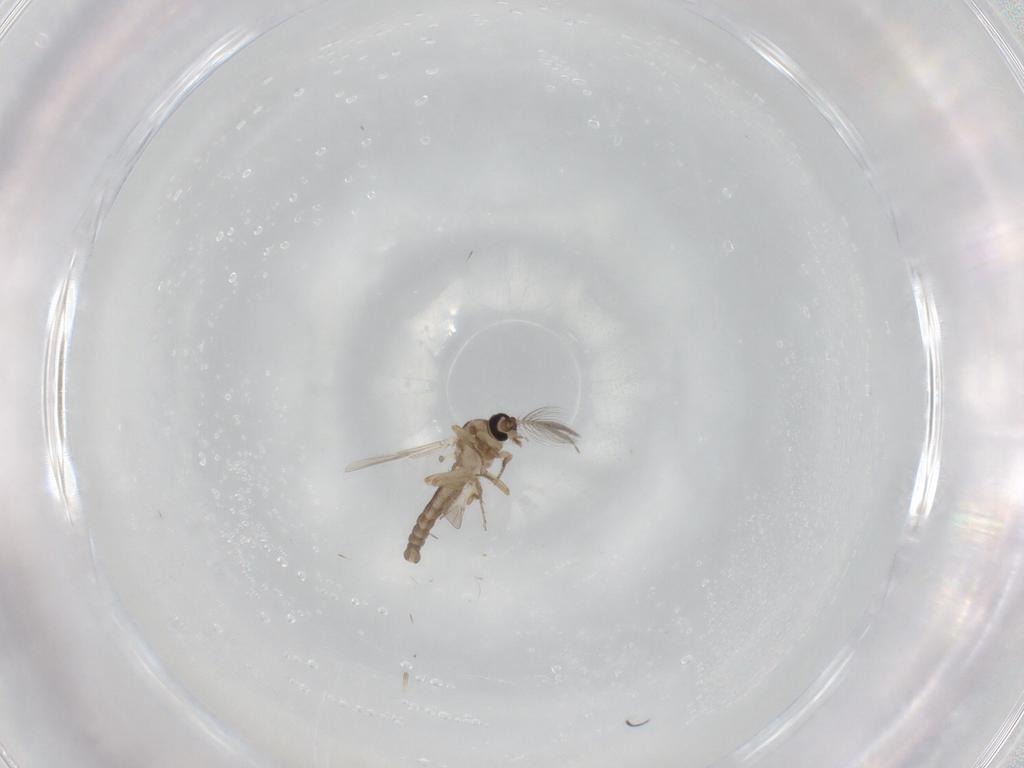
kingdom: Animalia
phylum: Arthropoda
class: Insecta
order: Diptera
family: Ceratopogonidae
